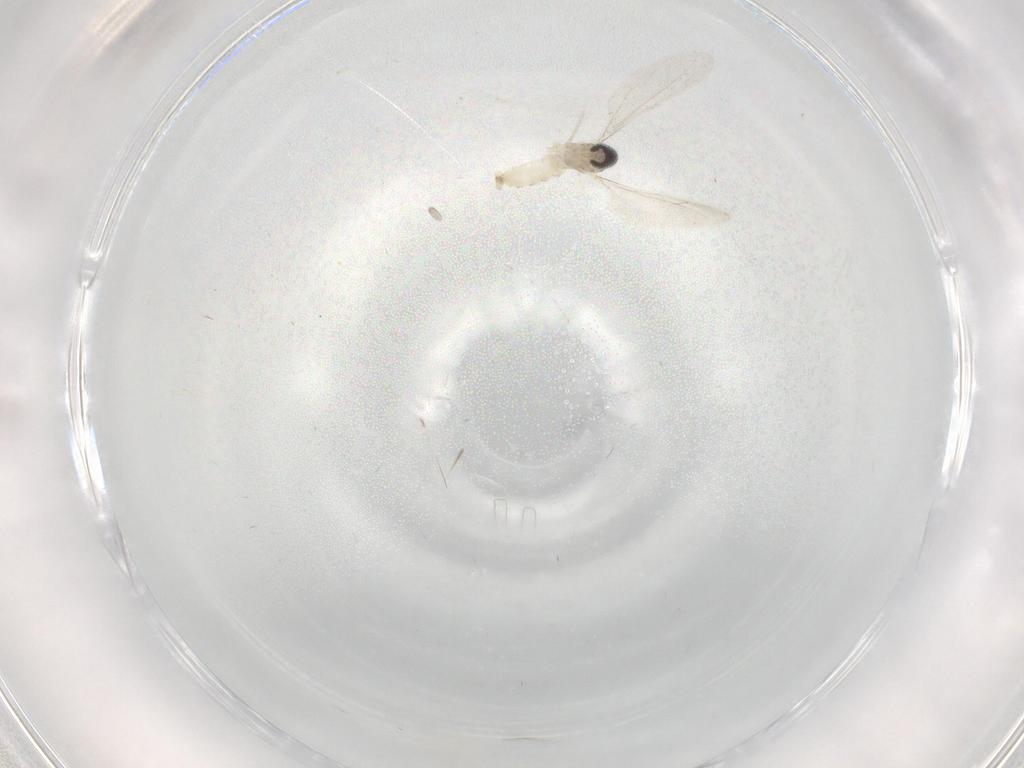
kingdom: Animalia
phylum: Arthropoda
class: Insecta
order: Diptera
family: Cecidomyiidae
